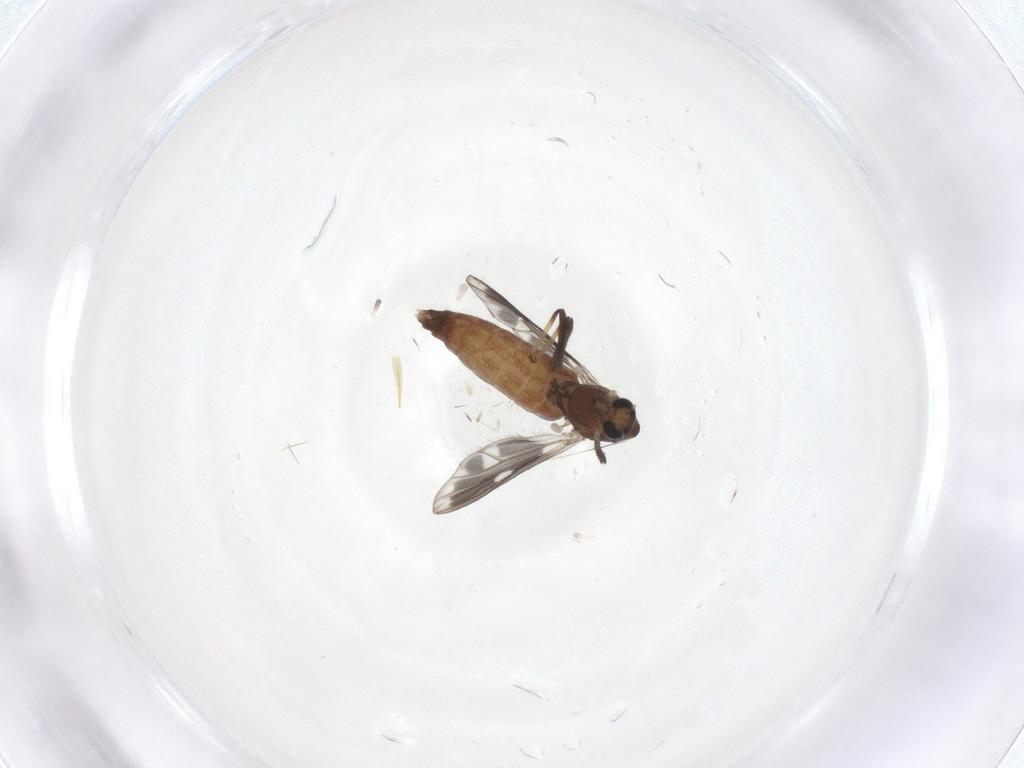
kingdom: Animalia
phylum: Arthropoda
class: Insecta
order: Diptera
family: Chironomidae
